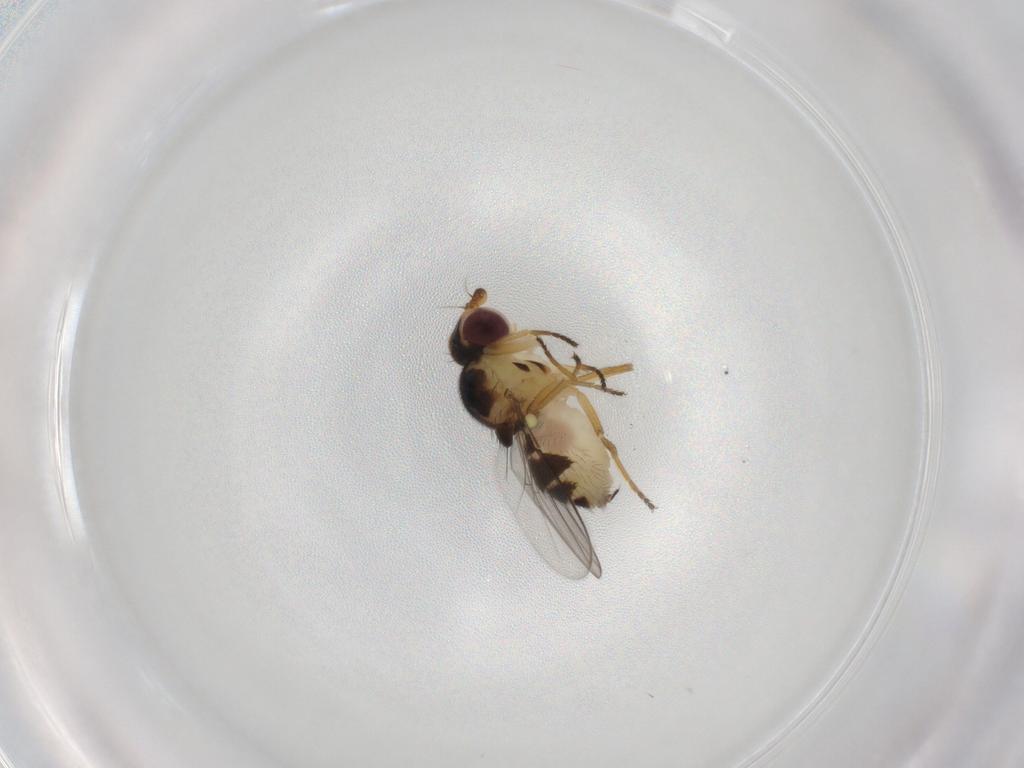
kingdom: Animalia
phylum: Arthropoda
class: Insecta
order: Diptera
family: Chloropidae
